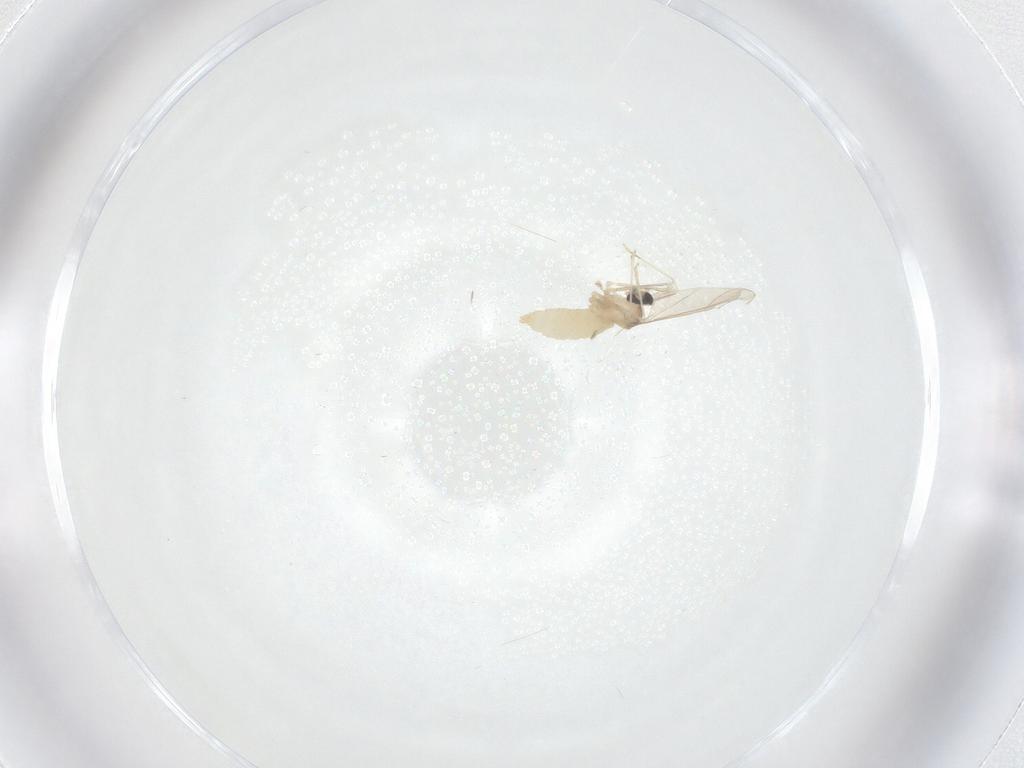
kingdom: Animalia
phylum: Arthropoda
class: Insecta
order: Diptera
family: Cecidomyiidae
